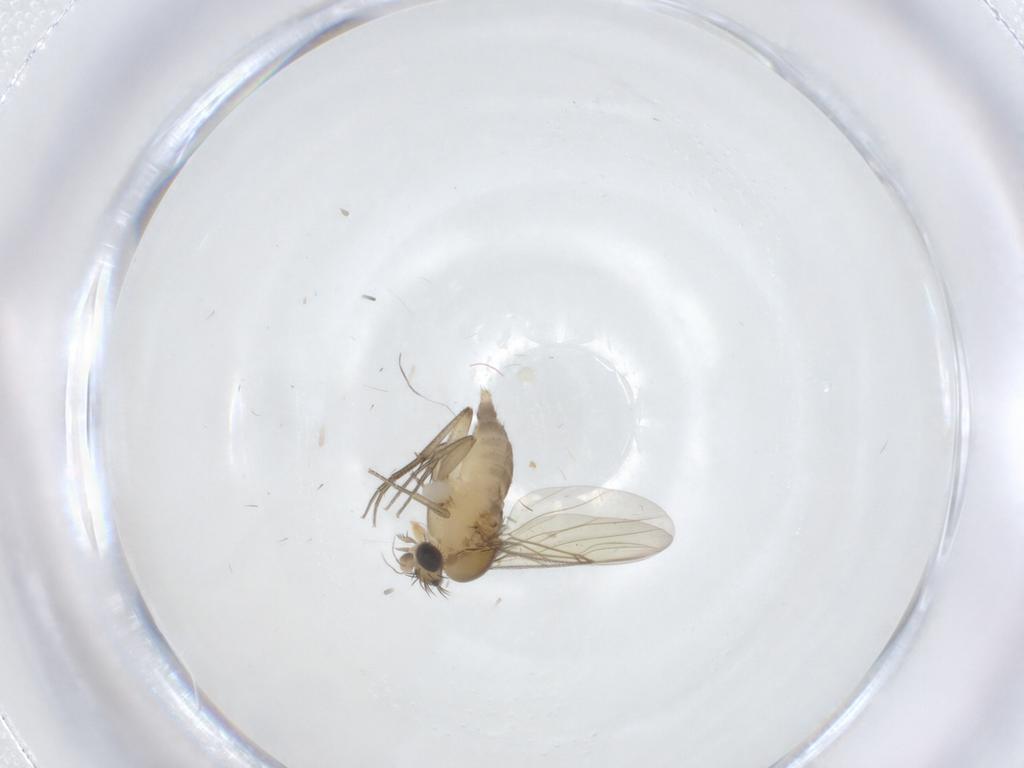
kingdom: Animalia
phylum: Arthropoda
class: Insecta
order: Diptera
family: Phoridae
